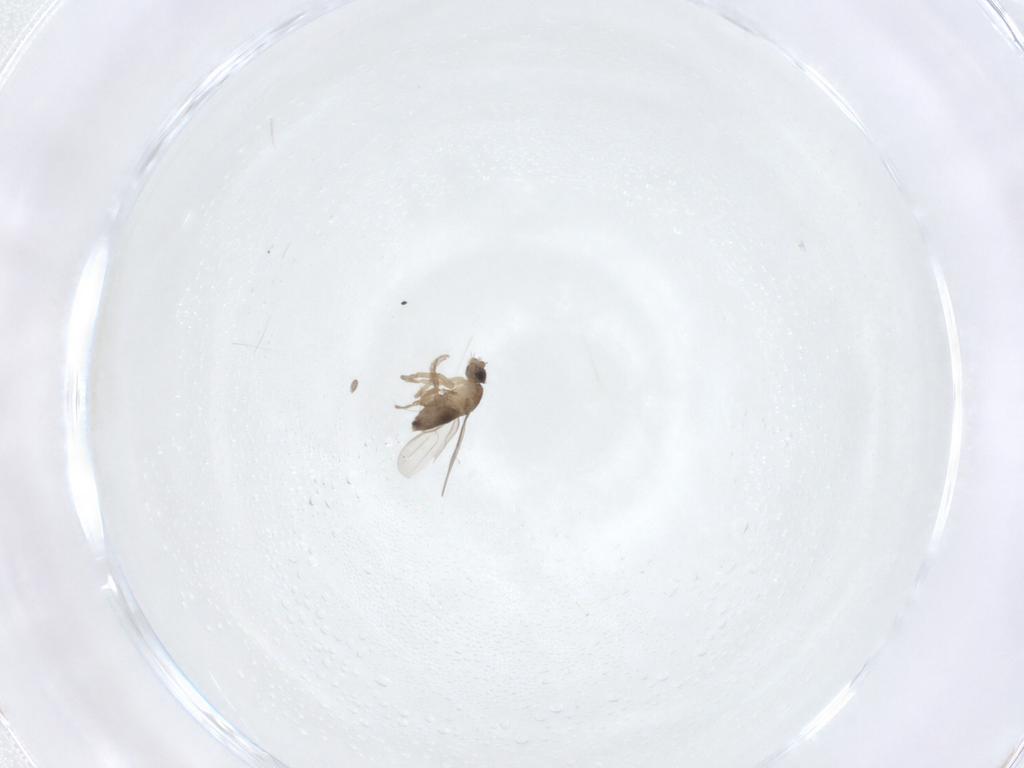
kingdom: Animalia
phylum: Arthropoda
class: Insecta
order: Diptera
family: Phoridae
